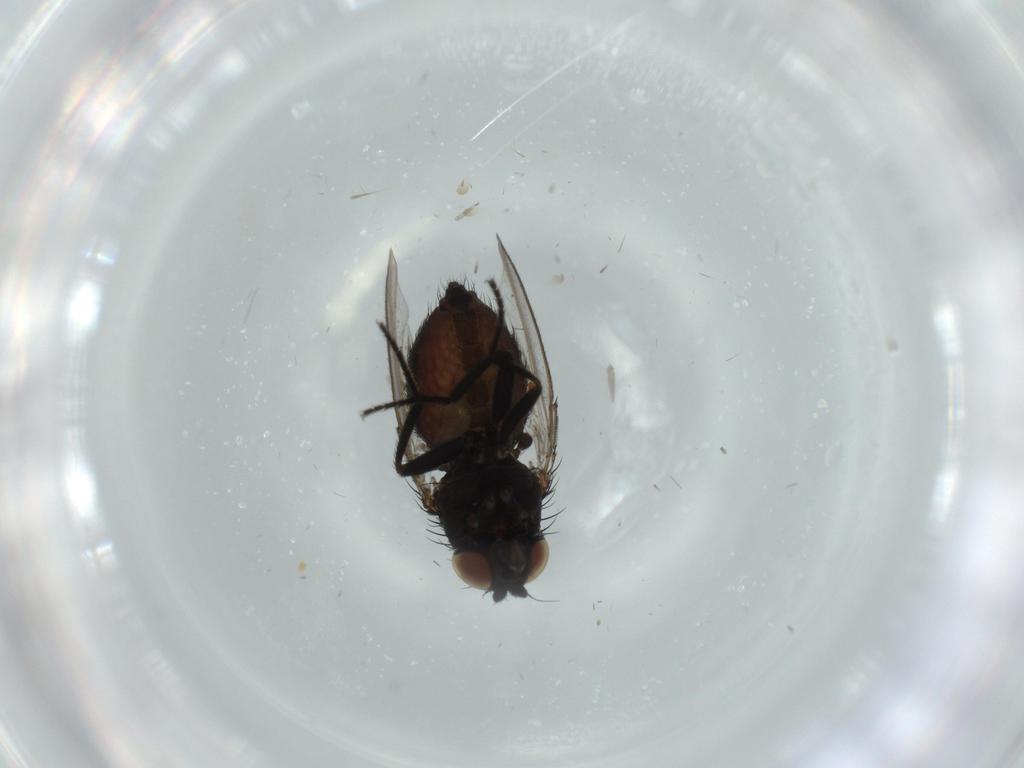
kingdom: Animalia
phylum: Arthropoda
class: Insecta
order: Diptera
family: Milichiidae
